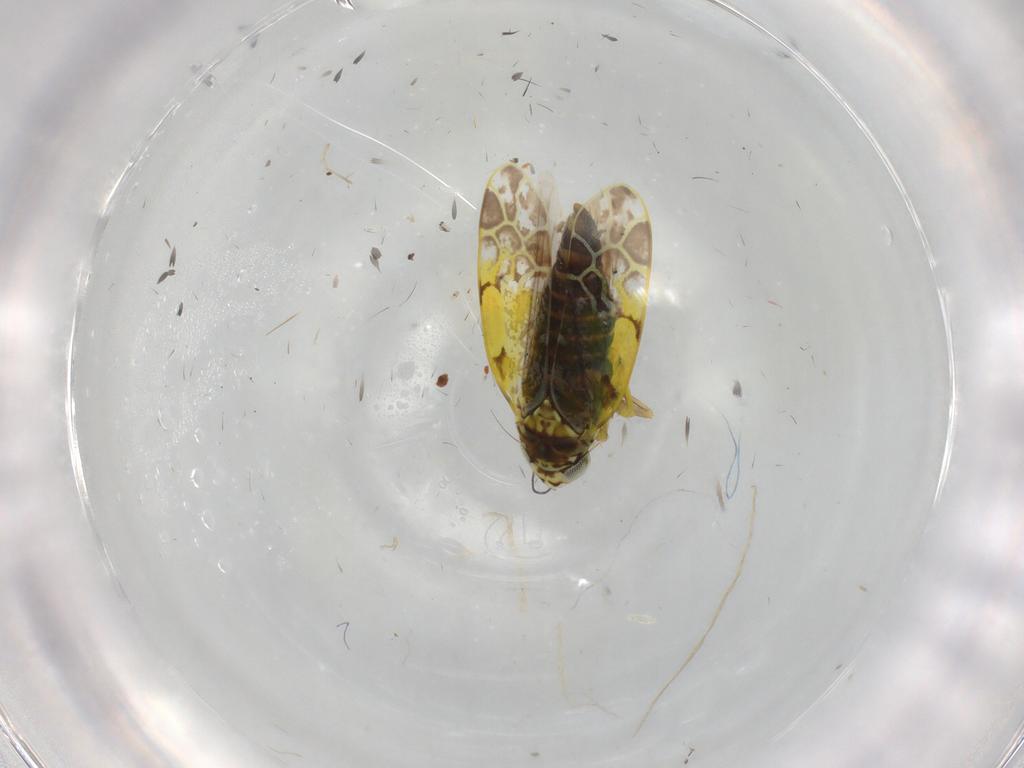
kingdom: Animalia
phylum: Arthropoda
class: Insecta
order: Hemiptera
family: Cicadellidae
